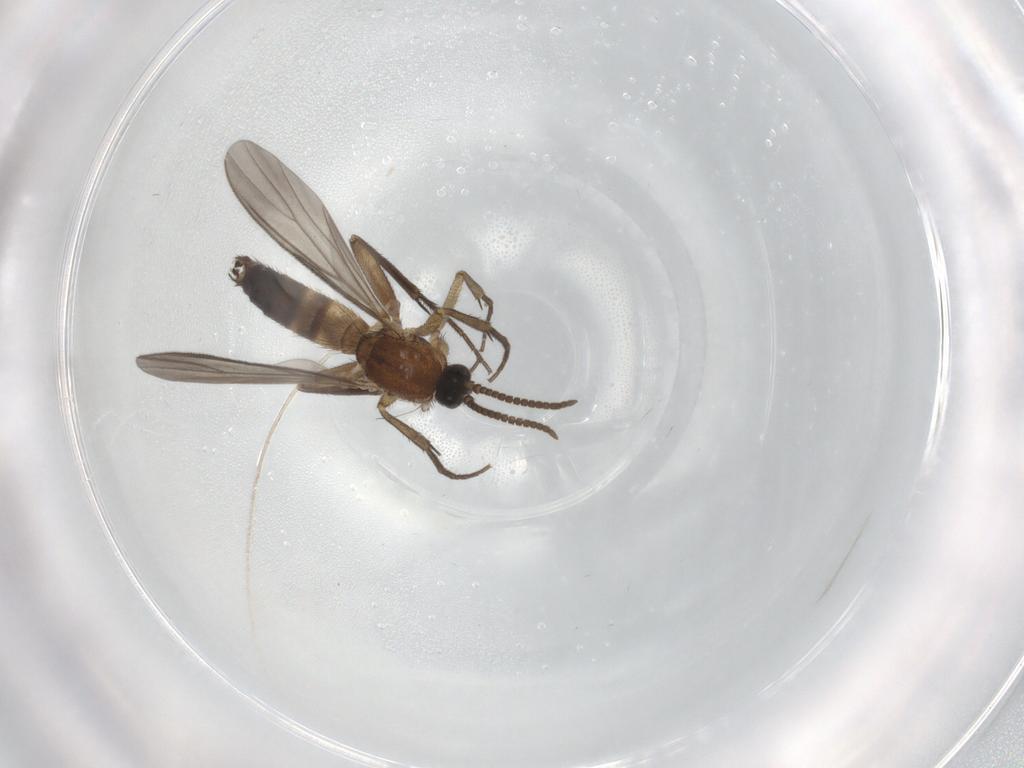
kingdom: Animalia
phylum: Arthropoda
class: Insecta
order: Diptera
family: Mycetophilidae
